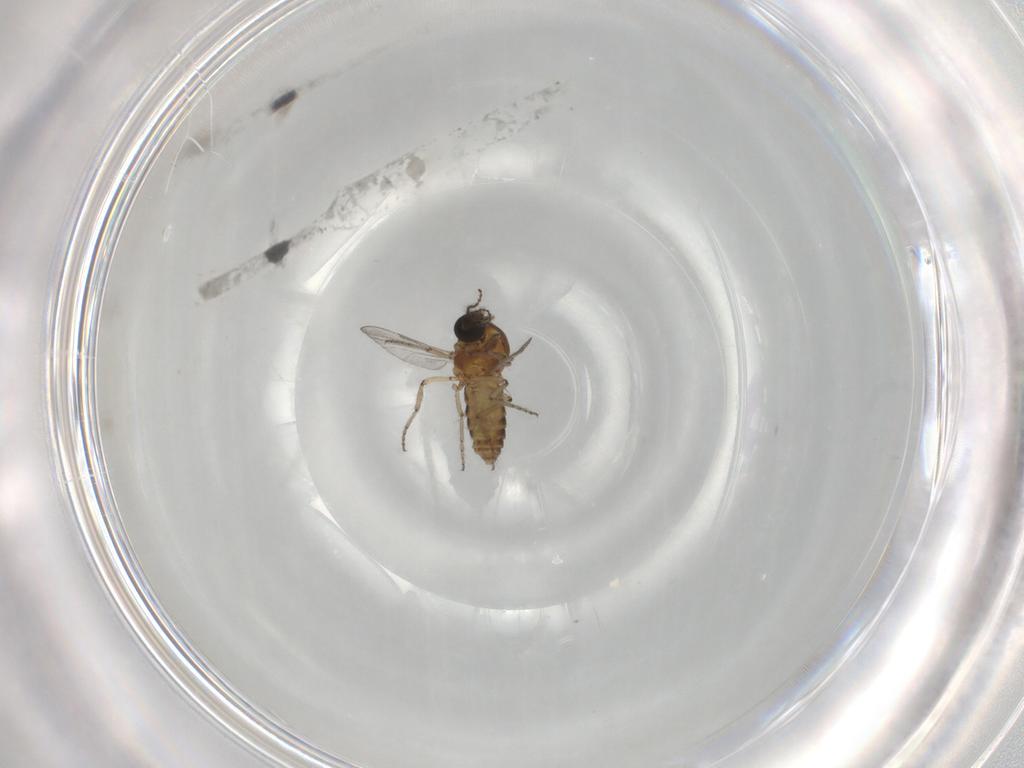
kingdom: Animalia
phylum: Arthropoda
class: Insecta
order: Diptera
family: Ceratopogonidae
